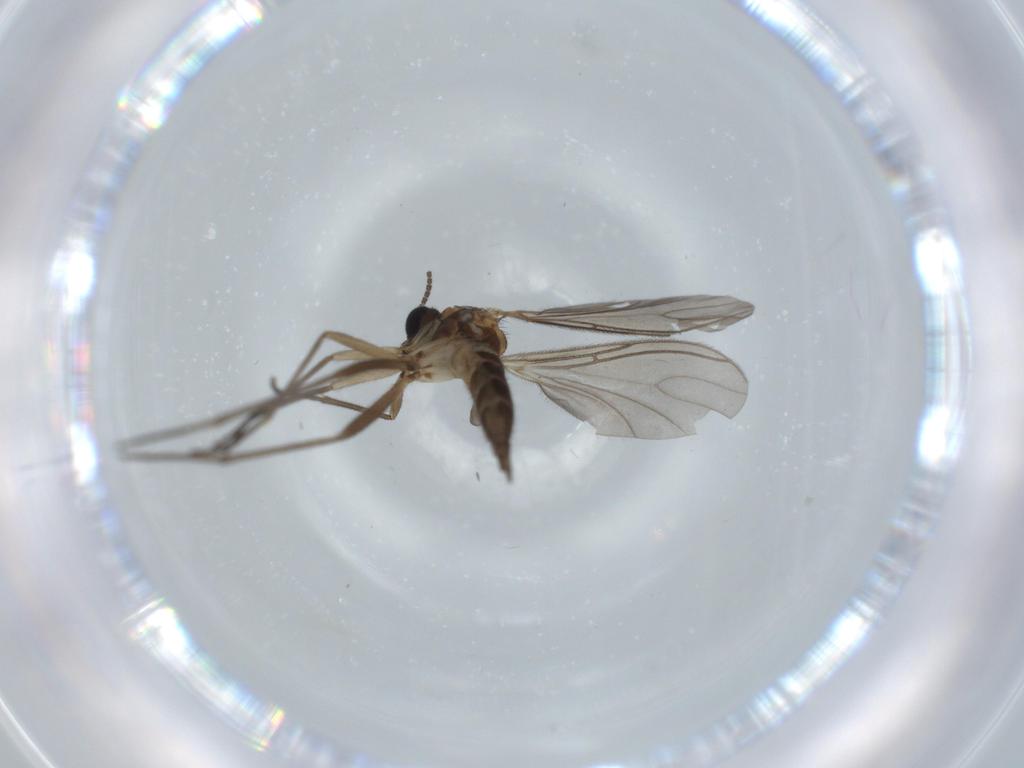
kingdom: Animalia
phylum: Arthropoda
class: Insecta
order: Diptera
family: Sciaridae
